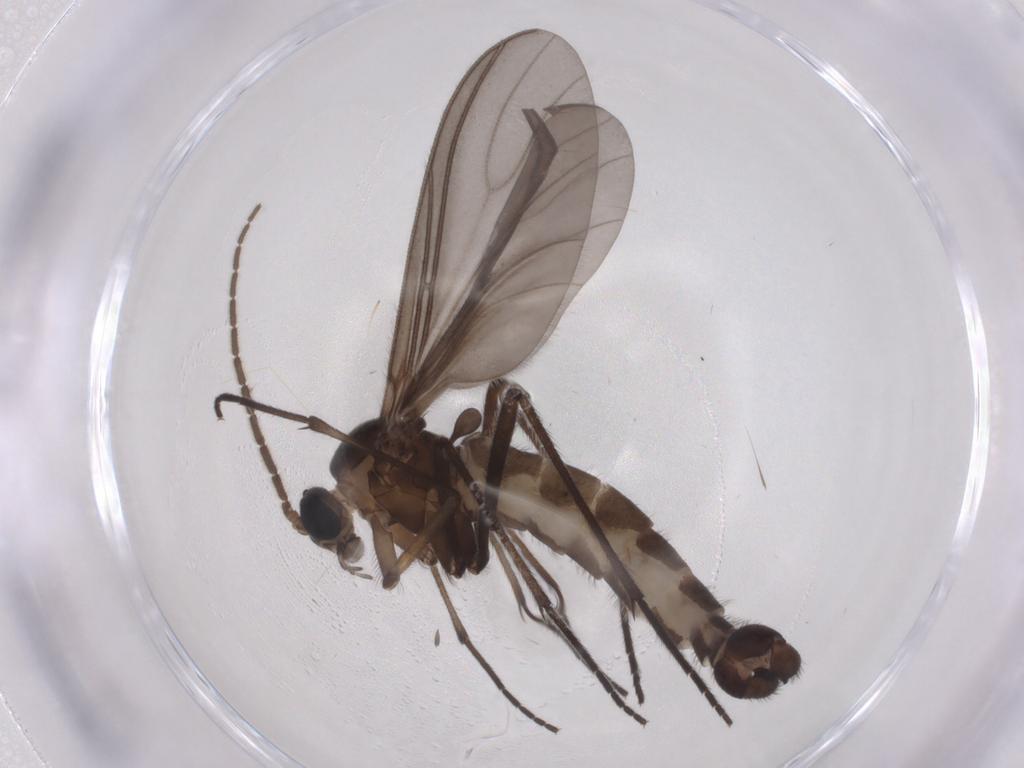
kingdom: Animalia
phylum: Arthropoda
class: Insecta
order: Diptera
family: Sciaridae
